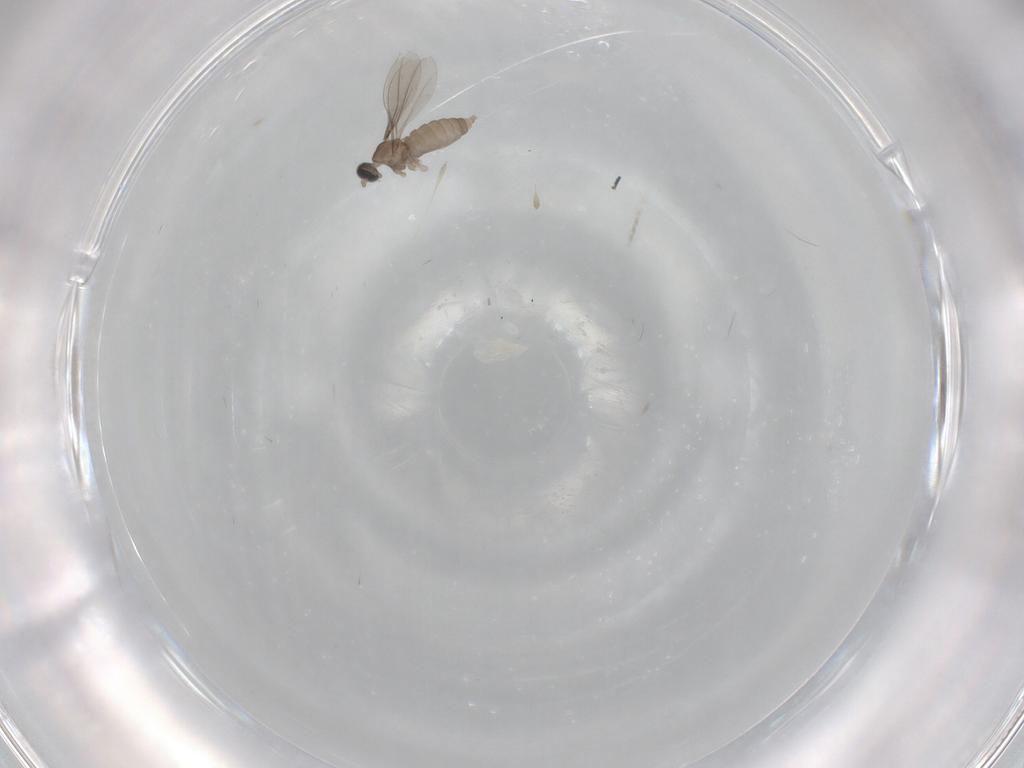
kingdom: Animalia
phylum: Arthropoda
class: Insecta
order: Diptera
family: Cecidomyiidae
